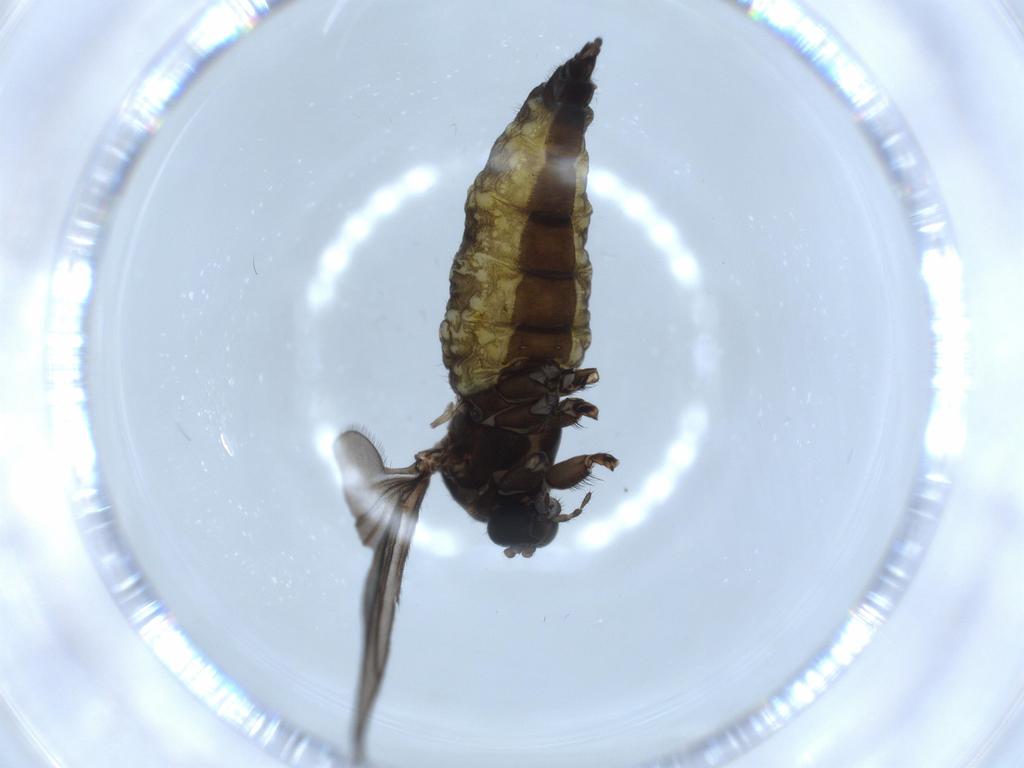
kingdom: Animalia
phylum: Arthropoda
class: Insecta
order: Diptera
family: Sciaridae
